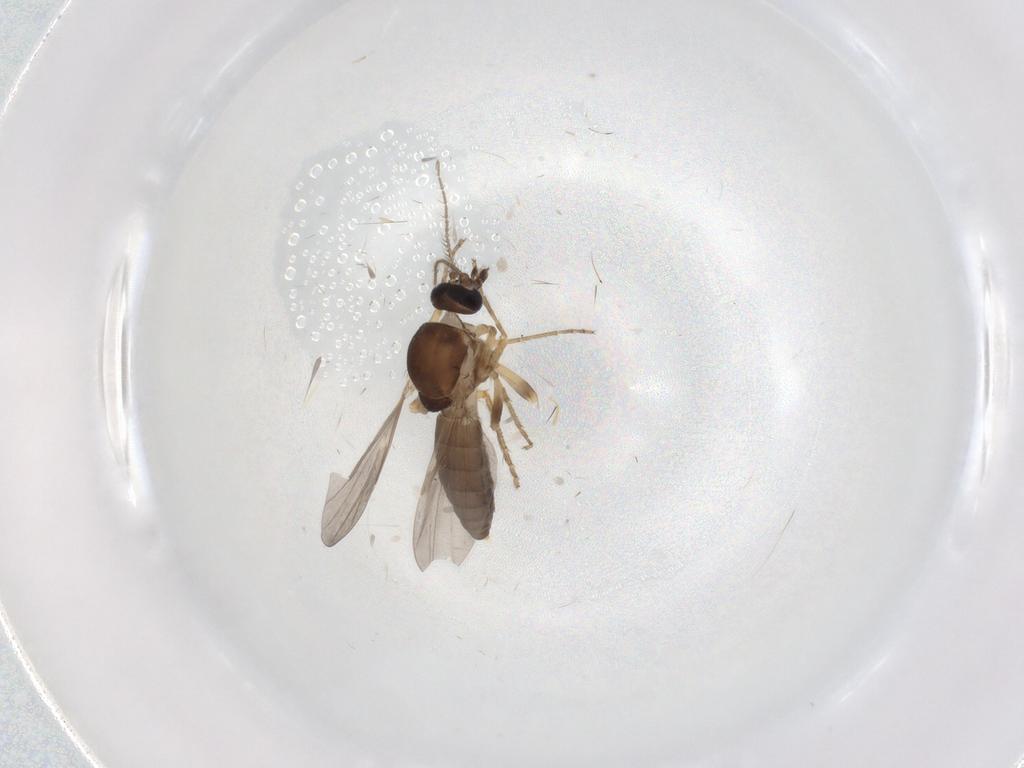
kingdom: Animalia
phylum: Arthropoda
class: Insecta
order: Diptera
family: Ceratopogonidae
